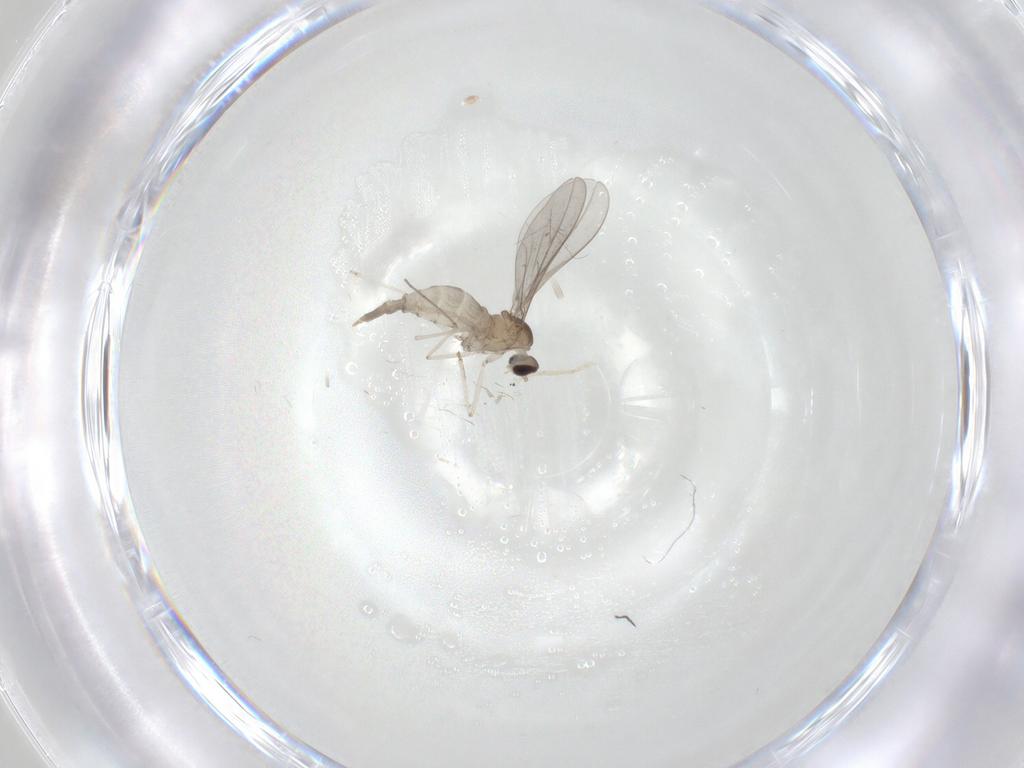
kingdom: Animalia
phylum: Arthropoda
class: Insecta
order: Diptera
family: Cecidomyiidae
